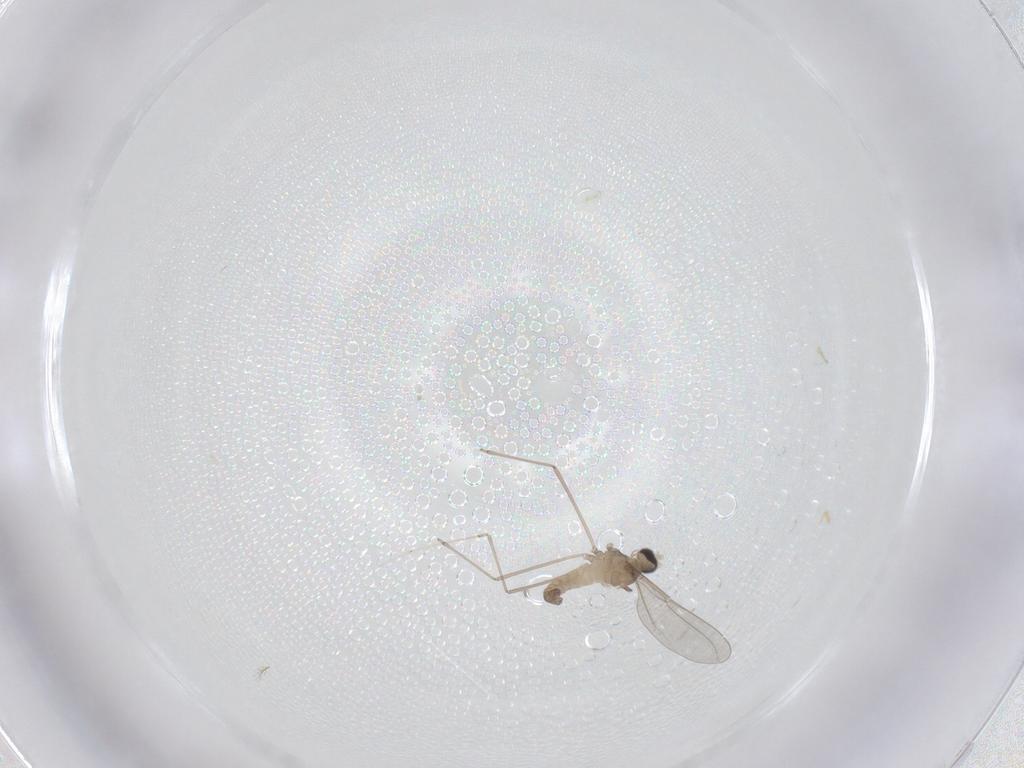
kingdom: Animalia
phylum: Arthropoda
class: Insecta
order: Diptera
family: Cecidomyiidae
